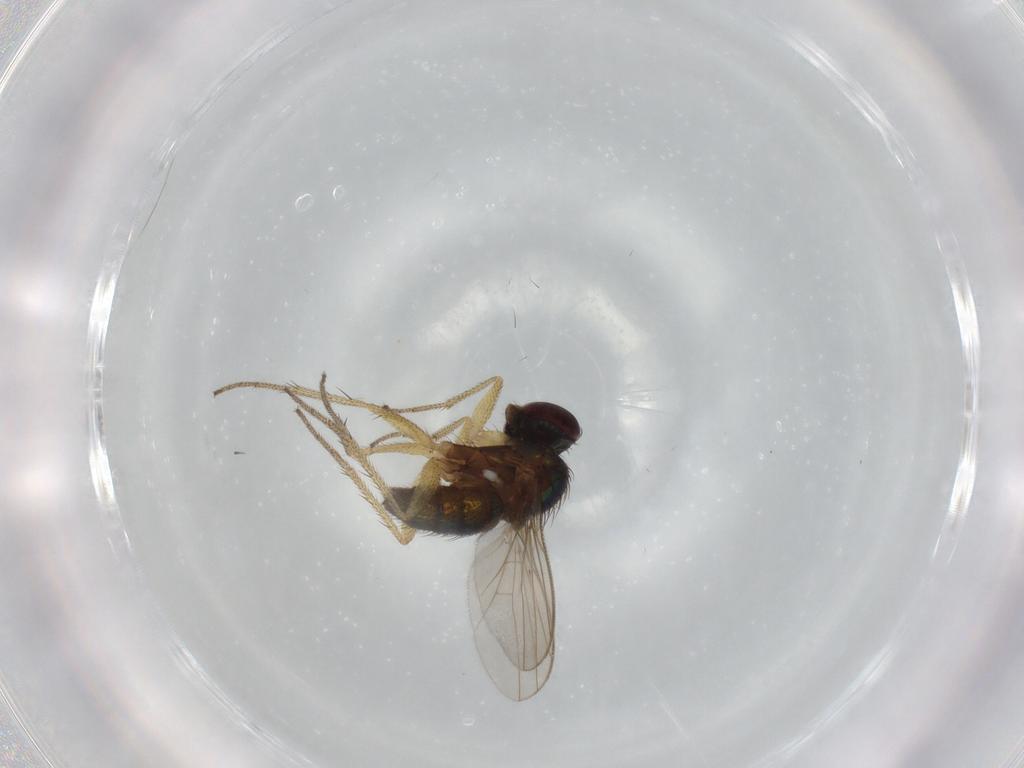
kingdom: Animalia
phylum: Arthropoda
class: Insecta
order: Diptera
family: Dolichopodidae
